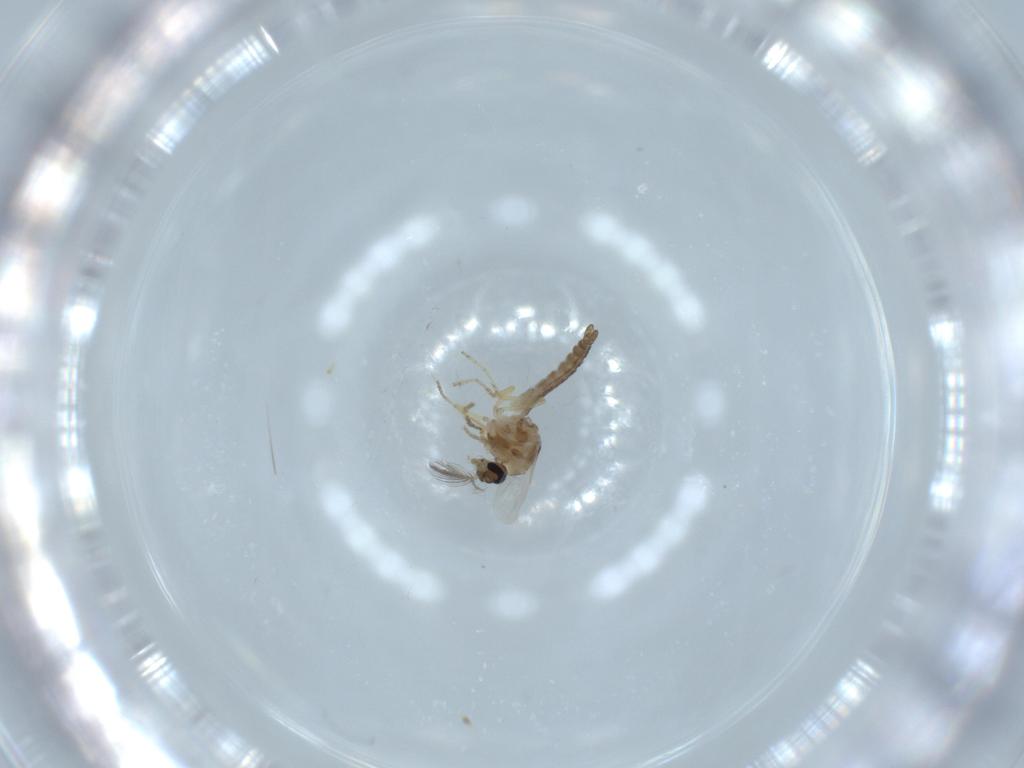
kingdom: Animalia
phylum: Arthropoda
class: Insecta
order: Diptera
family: Ceratopogonidae
